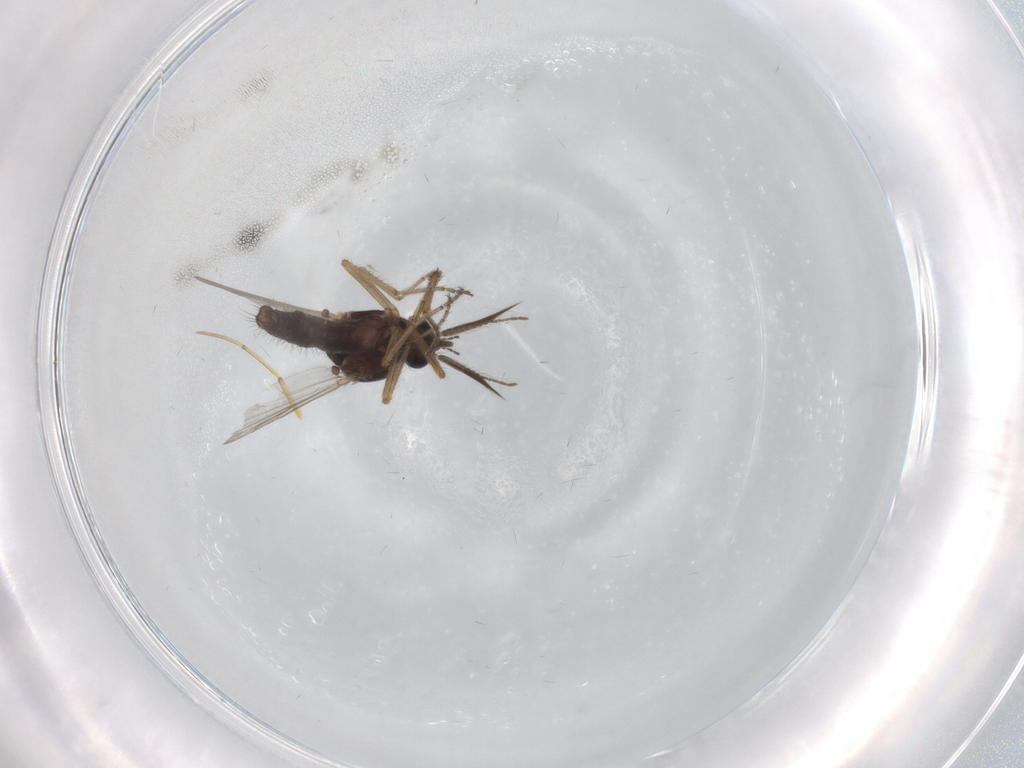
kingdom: Animalia
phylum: Arthropoda
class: Insecta
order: Diptera
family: Ceratopogonidae
